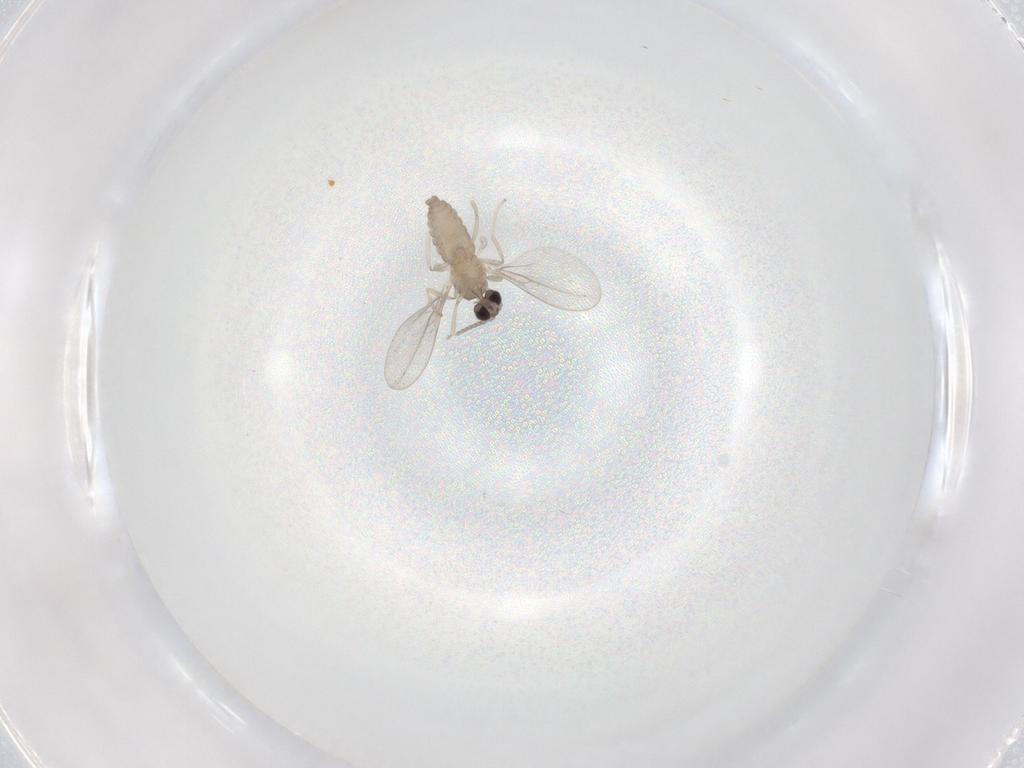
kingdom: Animalia
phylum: Arthropoda
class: Insecta
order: Diptera
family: Cecidomyiidae
